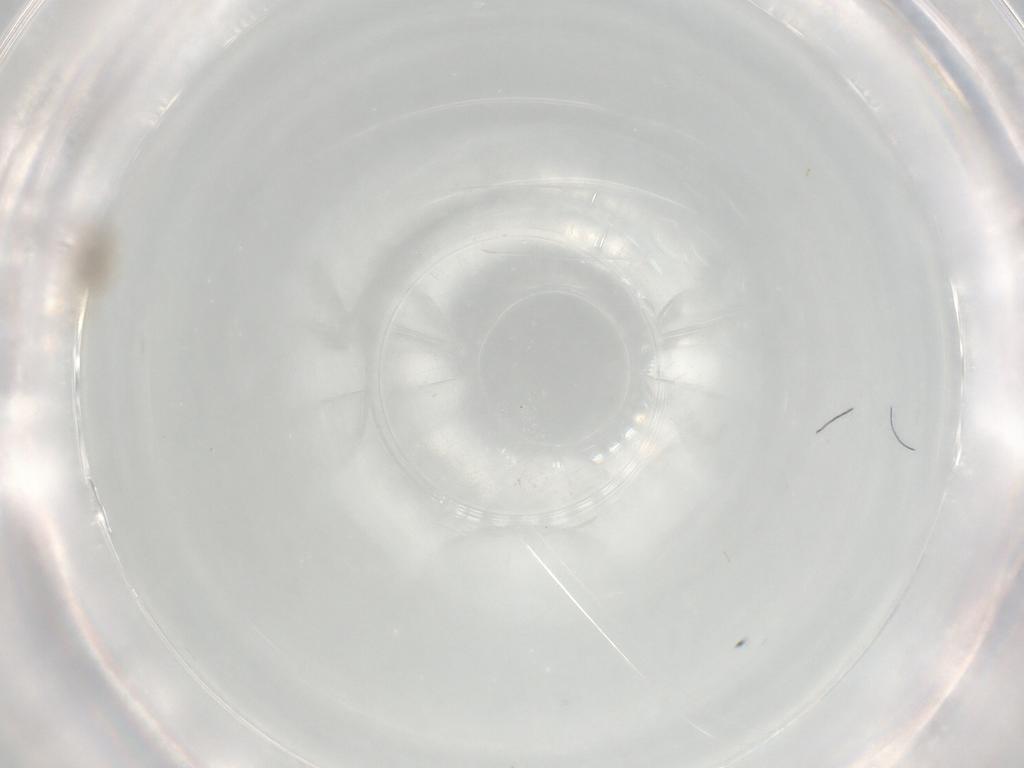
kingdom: Animalia
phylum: Arthropoda
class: Insecta
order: Diptera
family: Chironomidae
